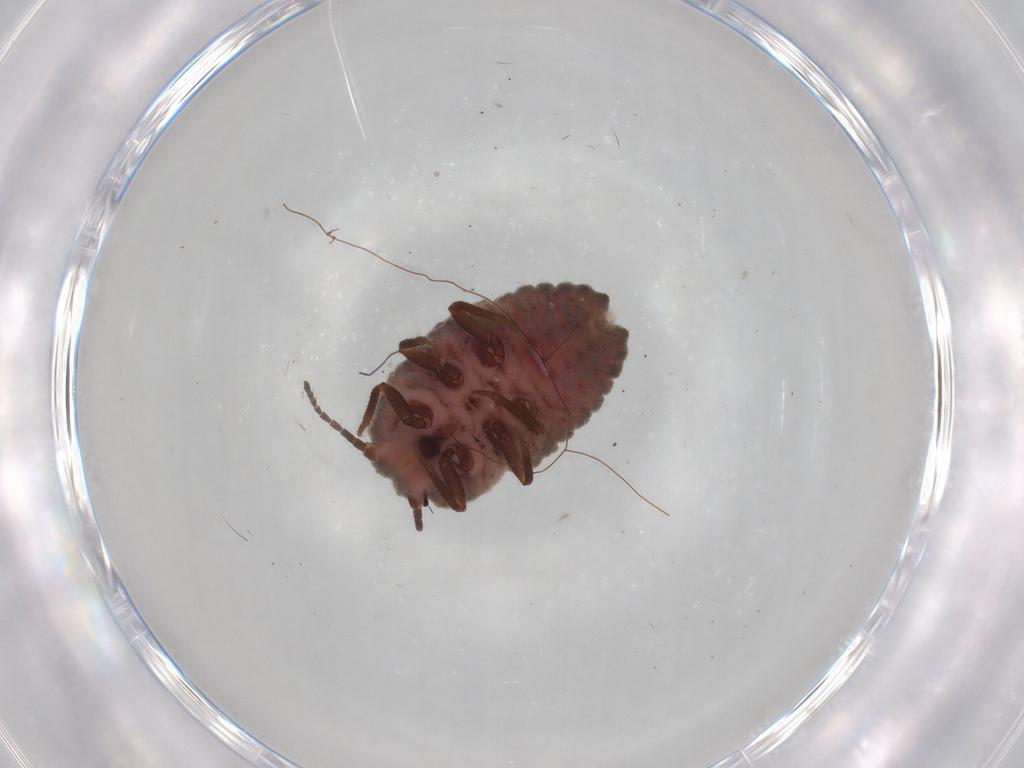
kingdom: Animalia
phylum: Arthropoda
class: Insecta
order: Hemiptera
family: Putoidae
